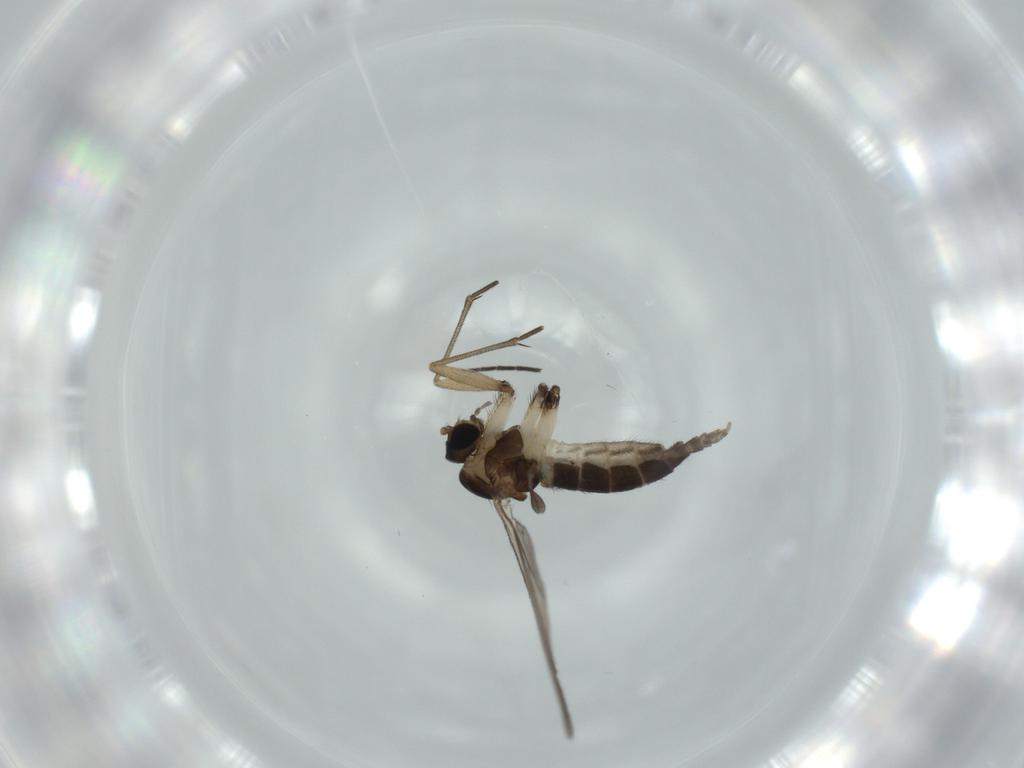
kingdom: Animalia
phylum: Arthropoda
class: Insecta
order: Diptera
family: Sciaridae
